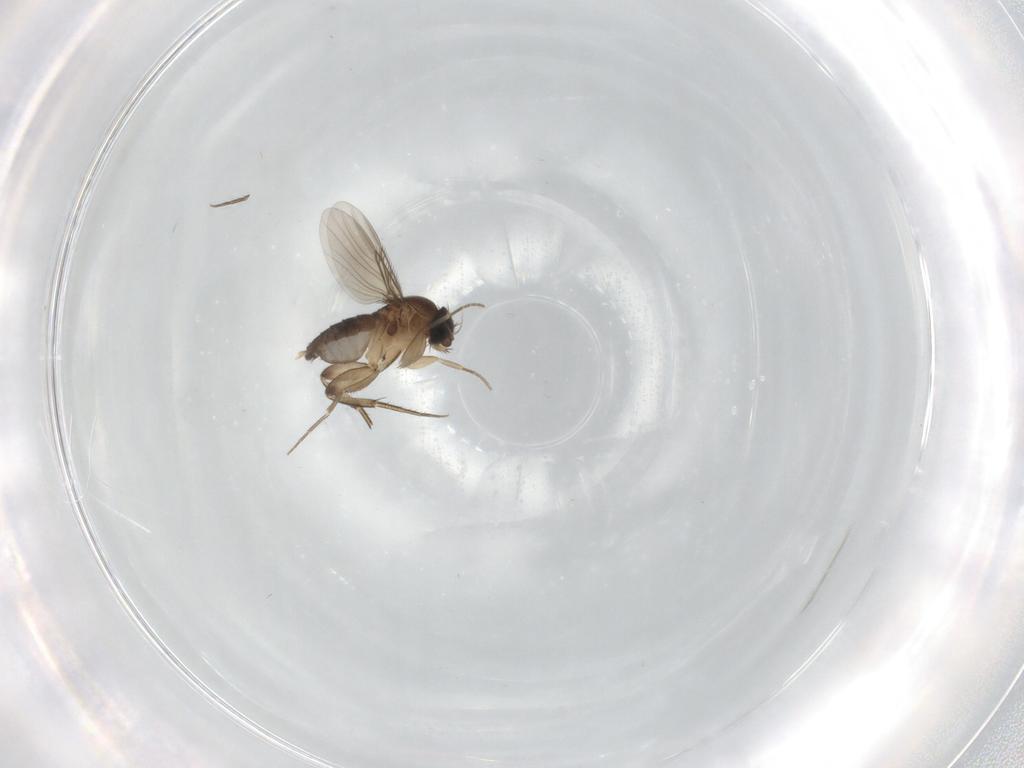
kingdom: Animalia
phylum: Arthropoda
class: Insecta
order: Diptera
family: Phoridae
